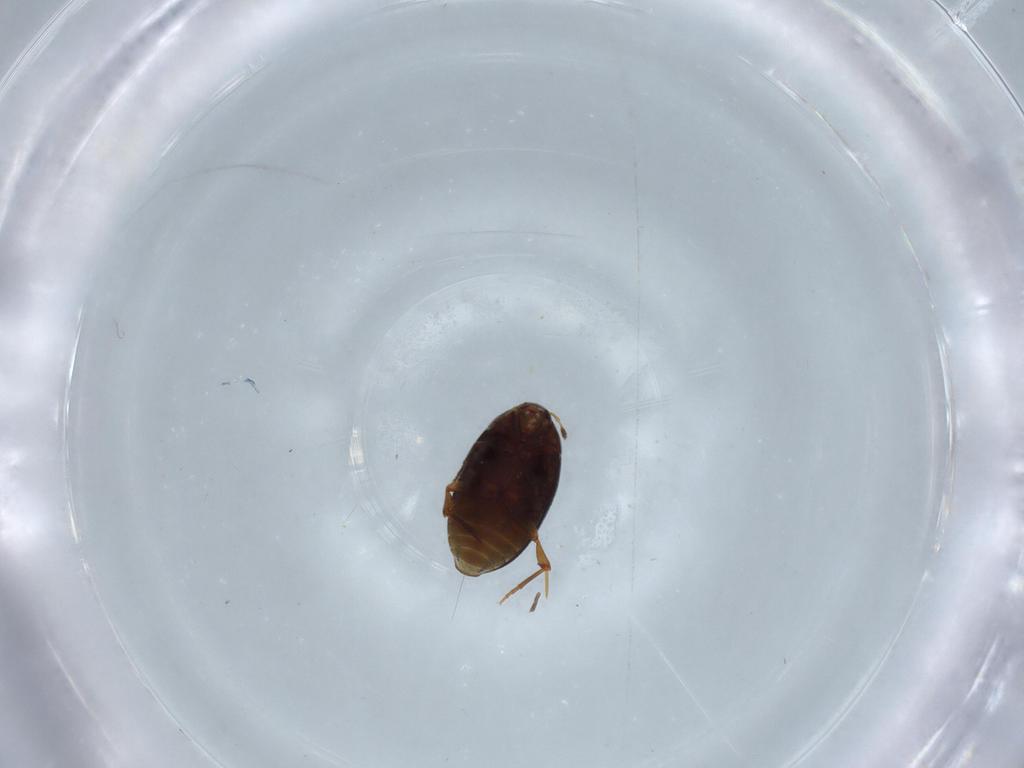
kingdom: Animalia
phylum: Arthropoda
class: Insecta
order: Coleoptera
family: Melandryidae
